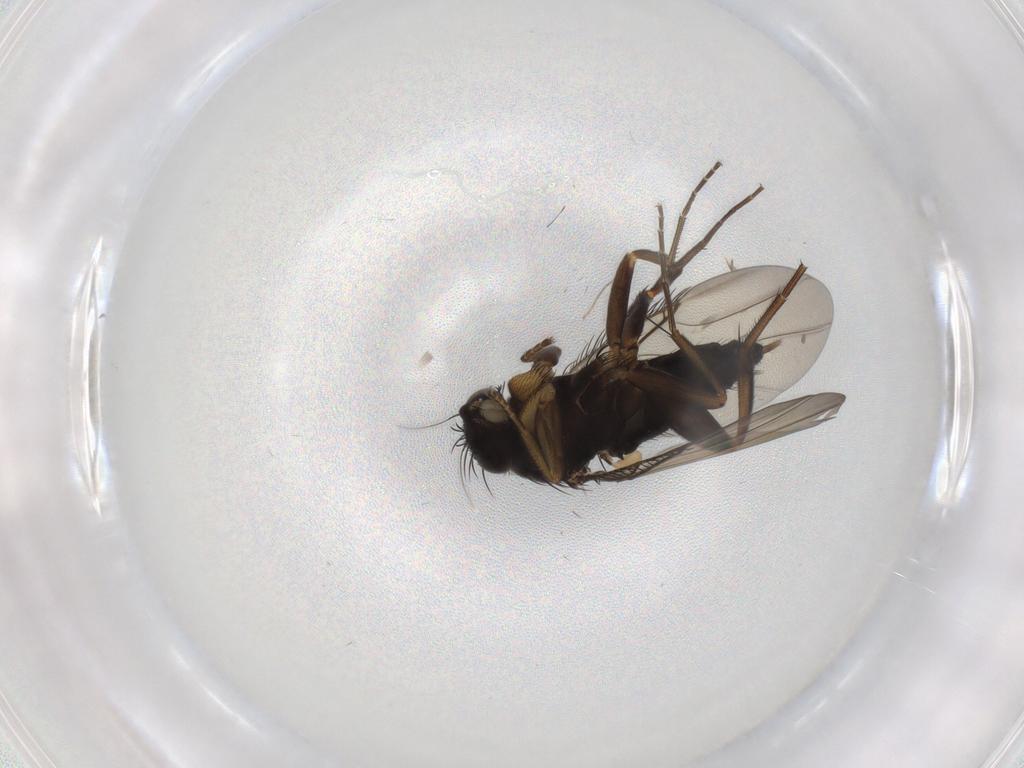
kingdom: Animalia
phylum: Arthropoda
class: Insecta
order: Diptera
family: Phoridae
